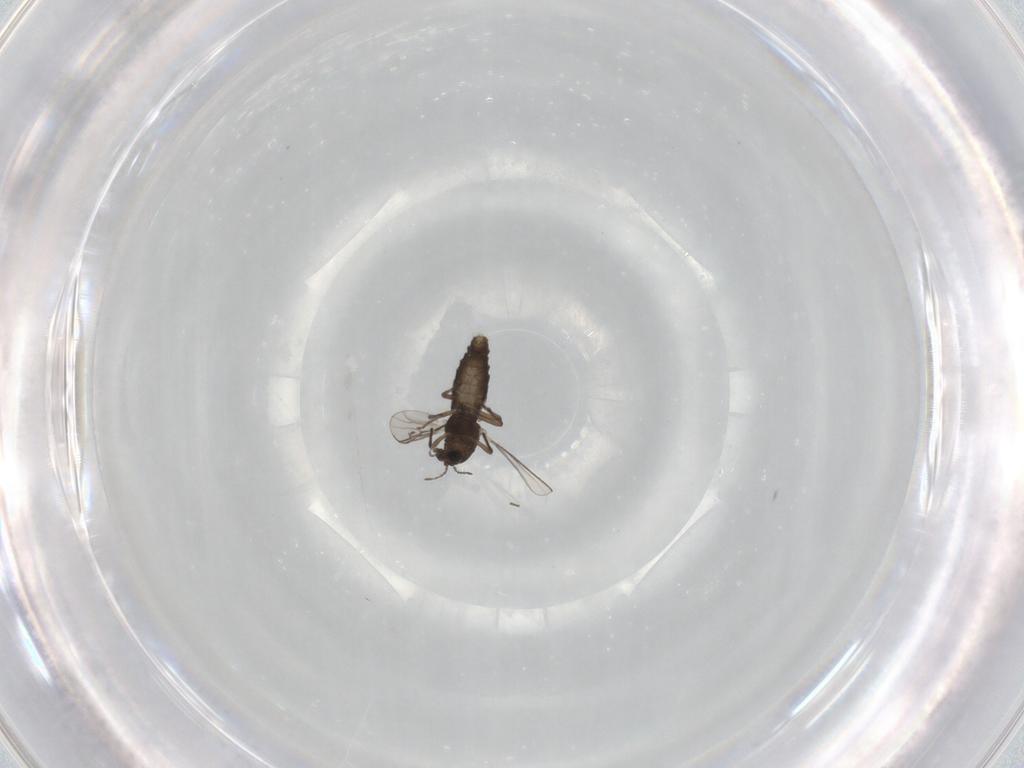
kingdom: Animalia
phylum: Arthropoda
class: Insecta
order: Diptera
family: Chironomidae
